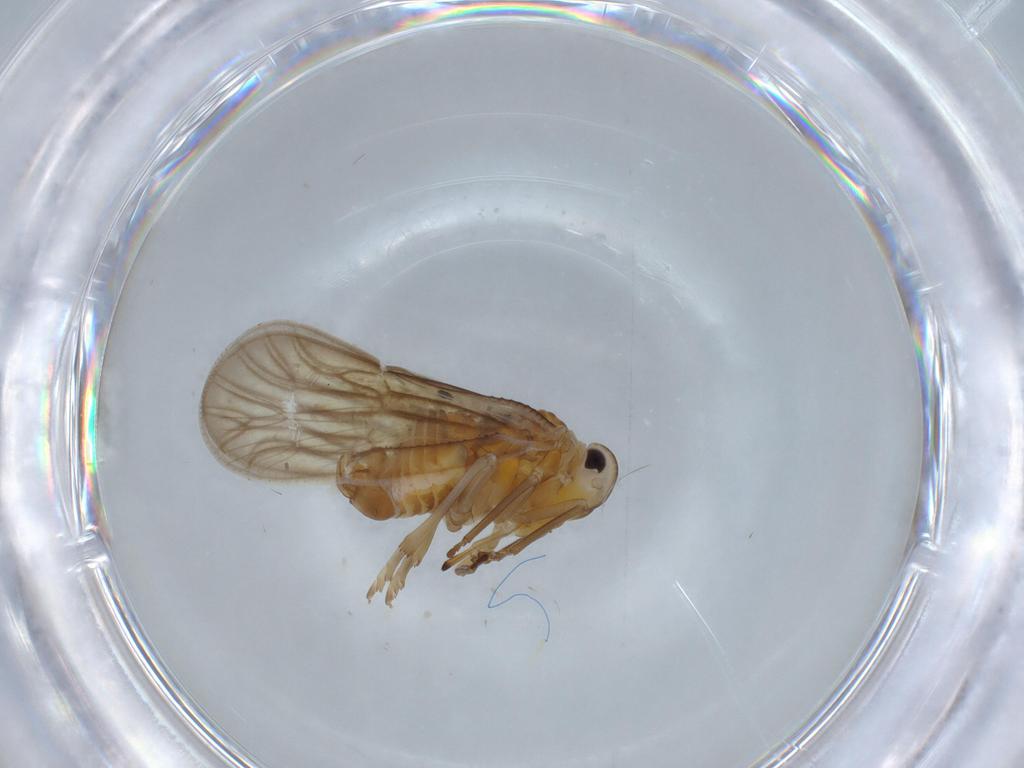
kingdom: Animalia
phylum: Arthropoda
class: Insecta
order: Hemiptera
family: Meenoplidae
